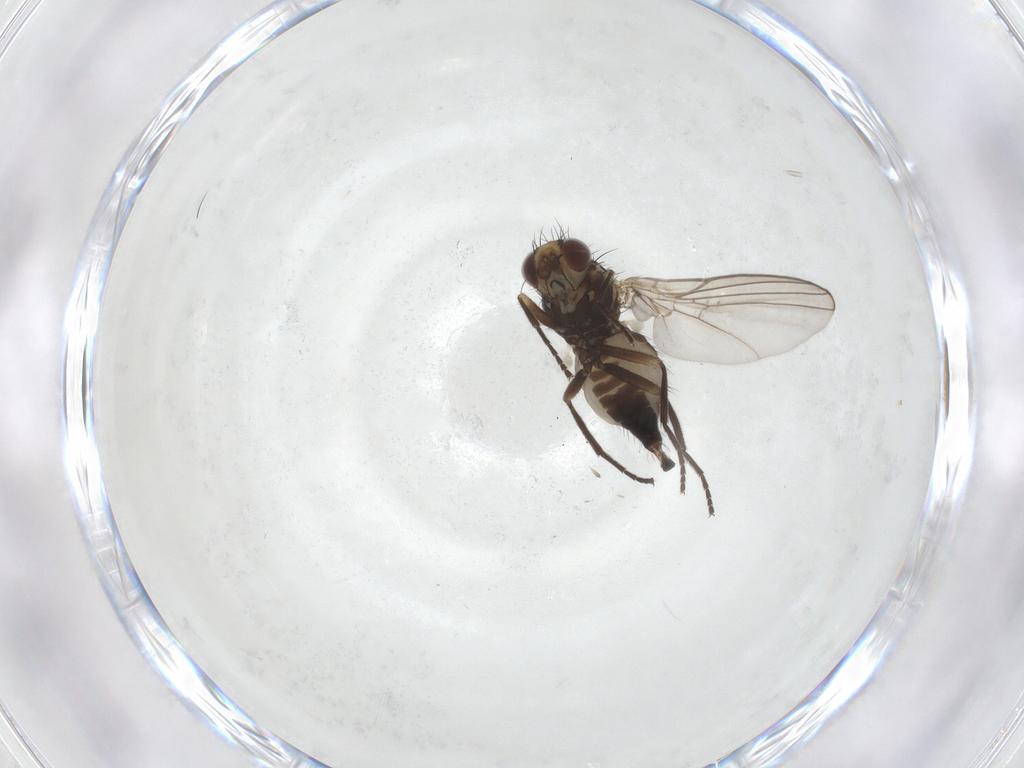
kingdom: Animalia
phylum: Arthropoda
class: Insecta
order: Diptera
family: Agromyzidae
